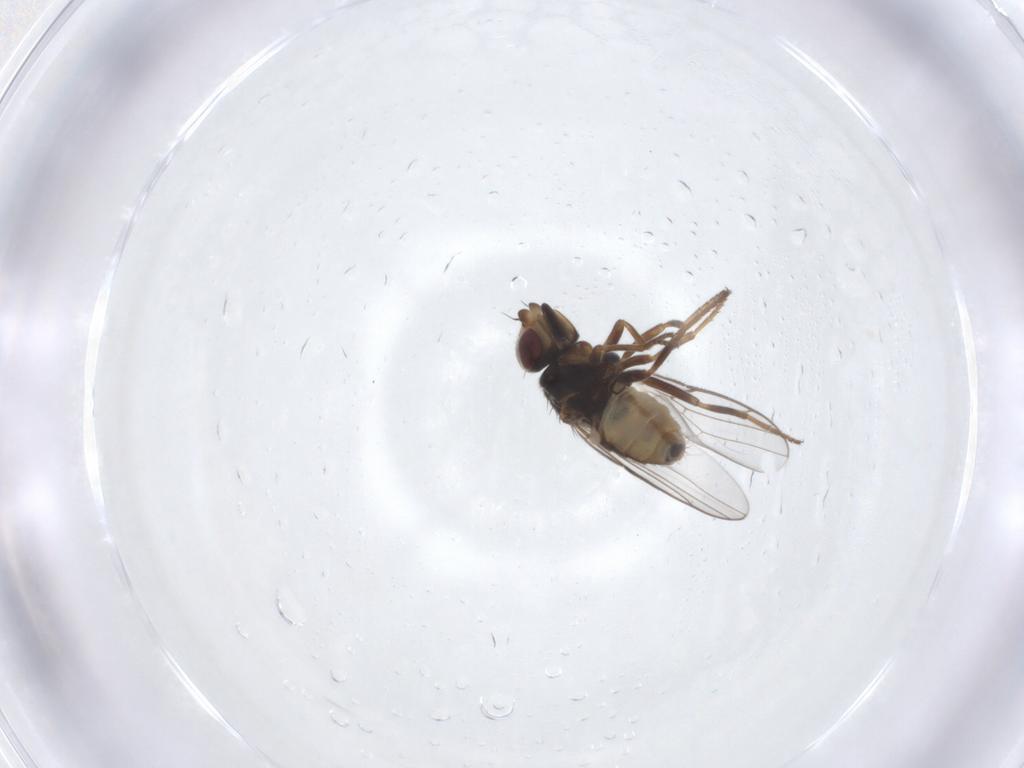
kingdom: Animalia
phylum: Arthropoda
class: Insecta
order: Diptera
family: Chloropidae
